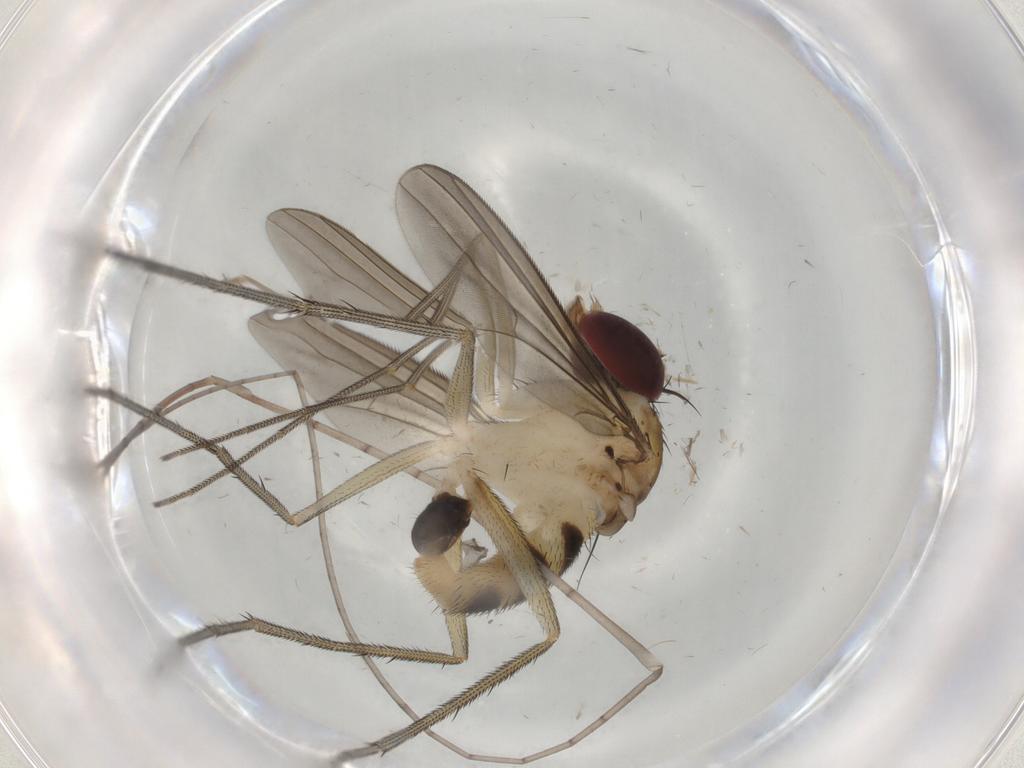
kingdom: Animalia
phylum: Arthropoda
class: Insecta
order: Diptera
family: Dolichopodidae
